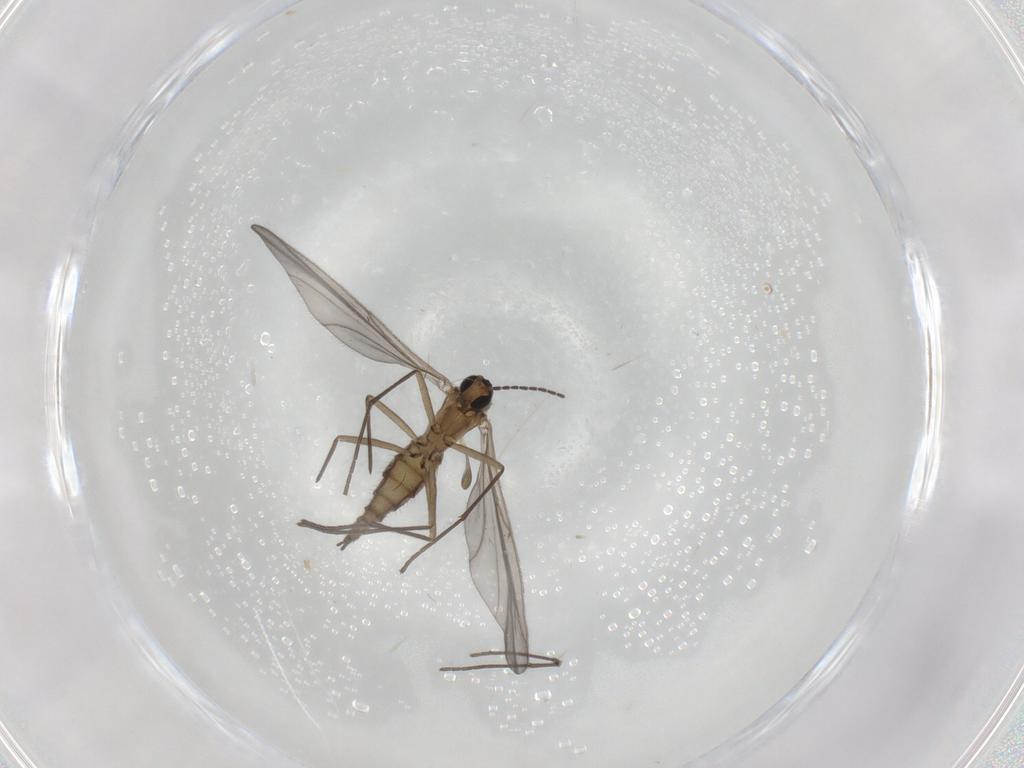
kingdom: Animalia
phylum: Arthropoda
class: Insecta
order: Diptera
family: Sciaridae
